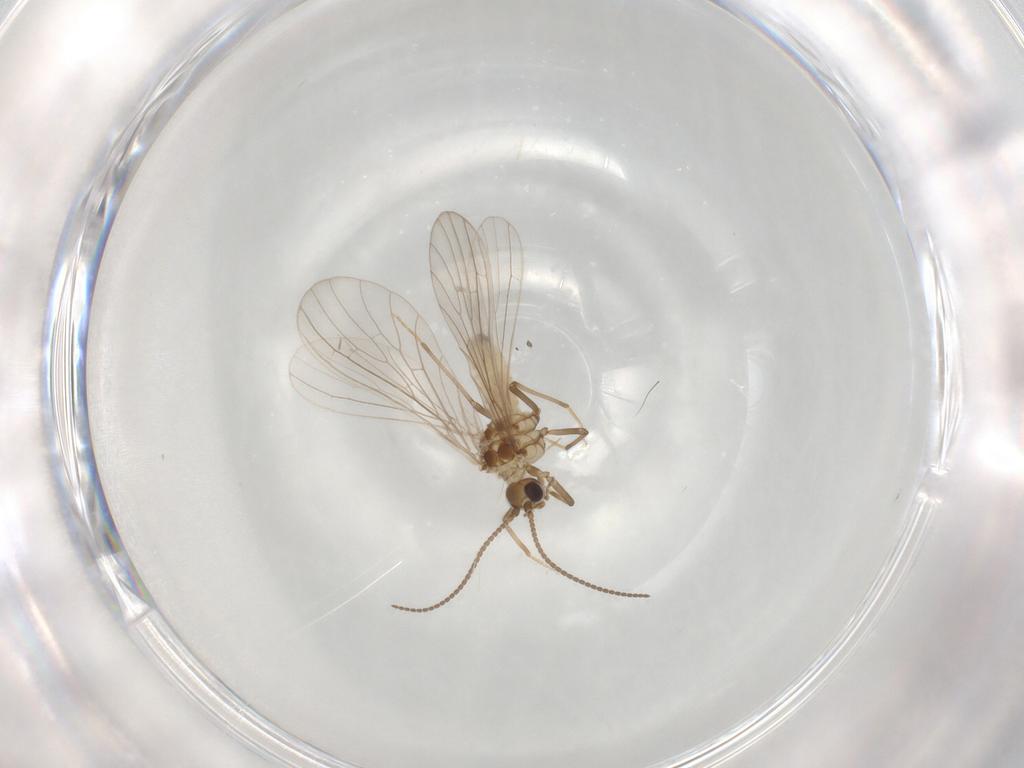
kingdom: Animalia
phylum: Arthropoda
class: Insecta
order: Neuroptera
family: Coniopterygidae
